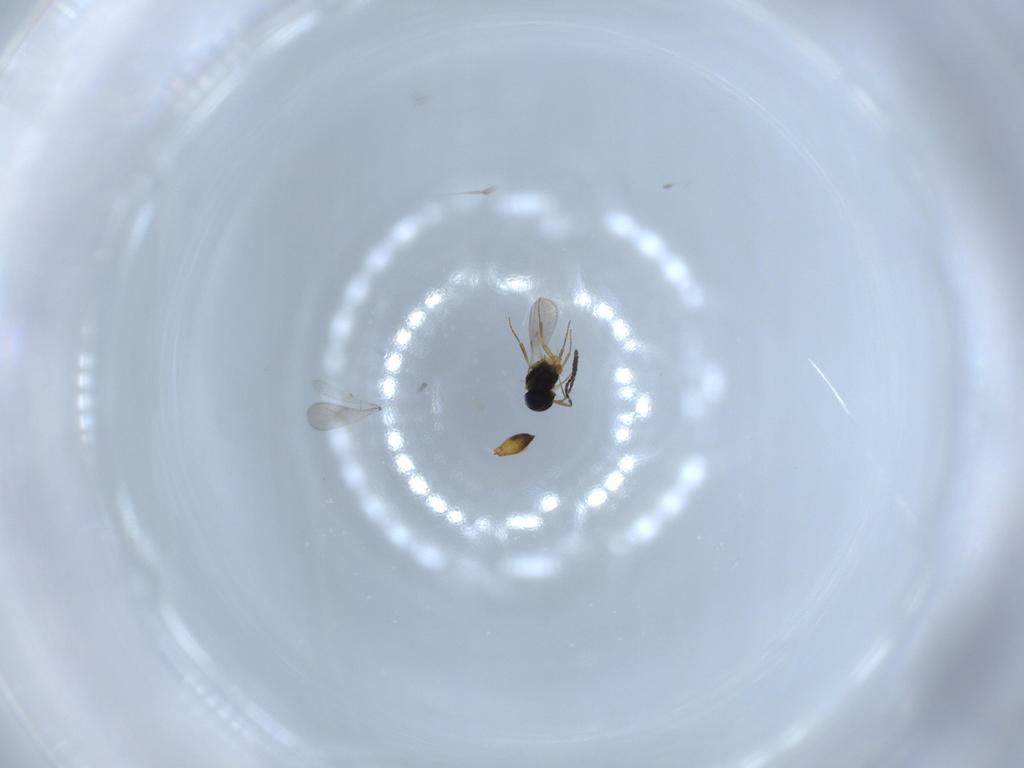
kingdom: Animalia
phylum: Arthropoda
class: Insecta
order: Hymenoptera
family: Scelionidae
